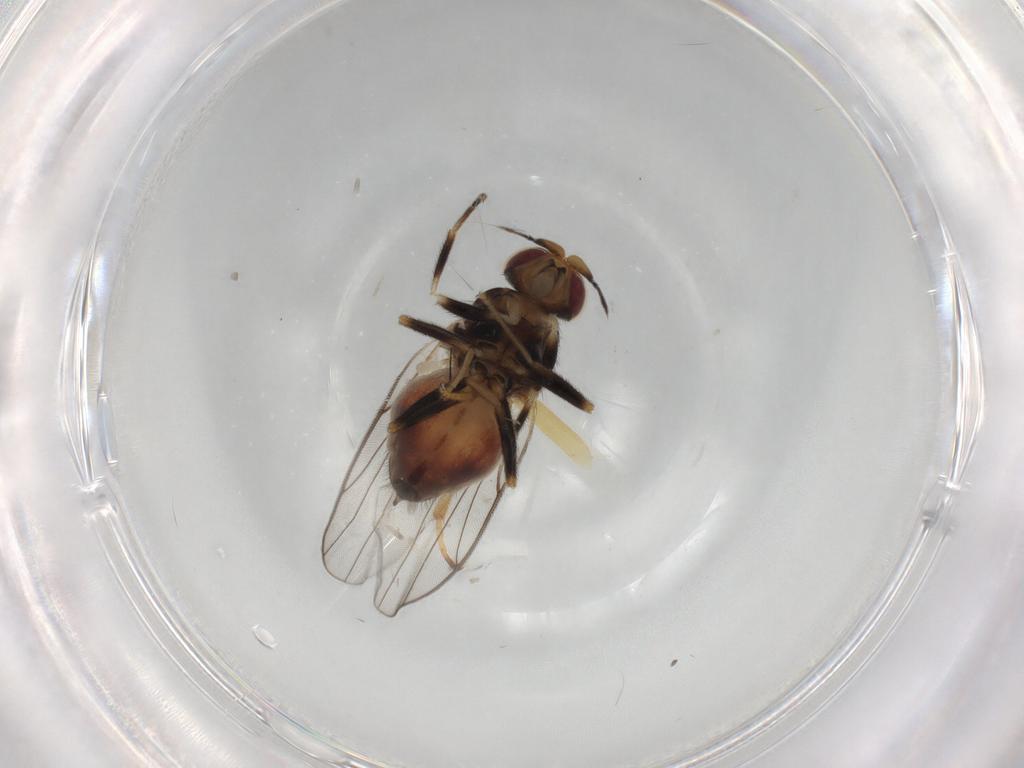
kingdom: Animalia
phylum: Arthropoda
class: Insecta
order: Diptera
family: Chloropidae
